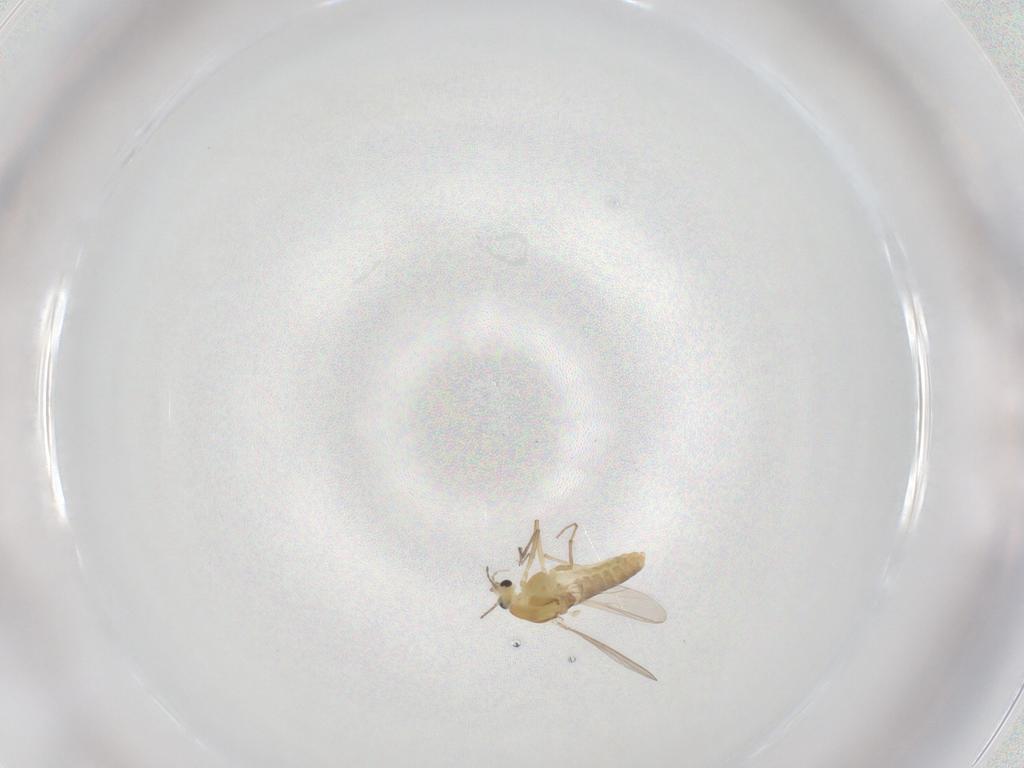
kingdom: Animalia
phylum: Arthropoda
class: Insecta
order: Diptera
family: Chironomidae
